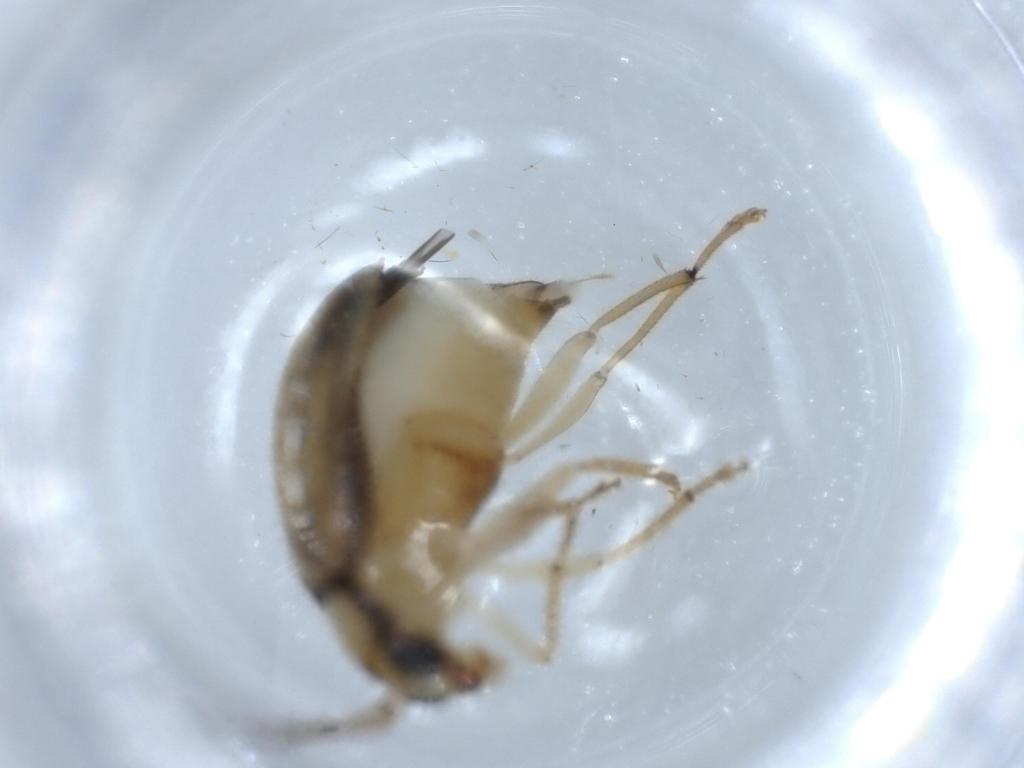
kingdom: Animalia
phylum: Arthropoda
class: Insecta
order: Coleoptera
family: Chrysomelidae
